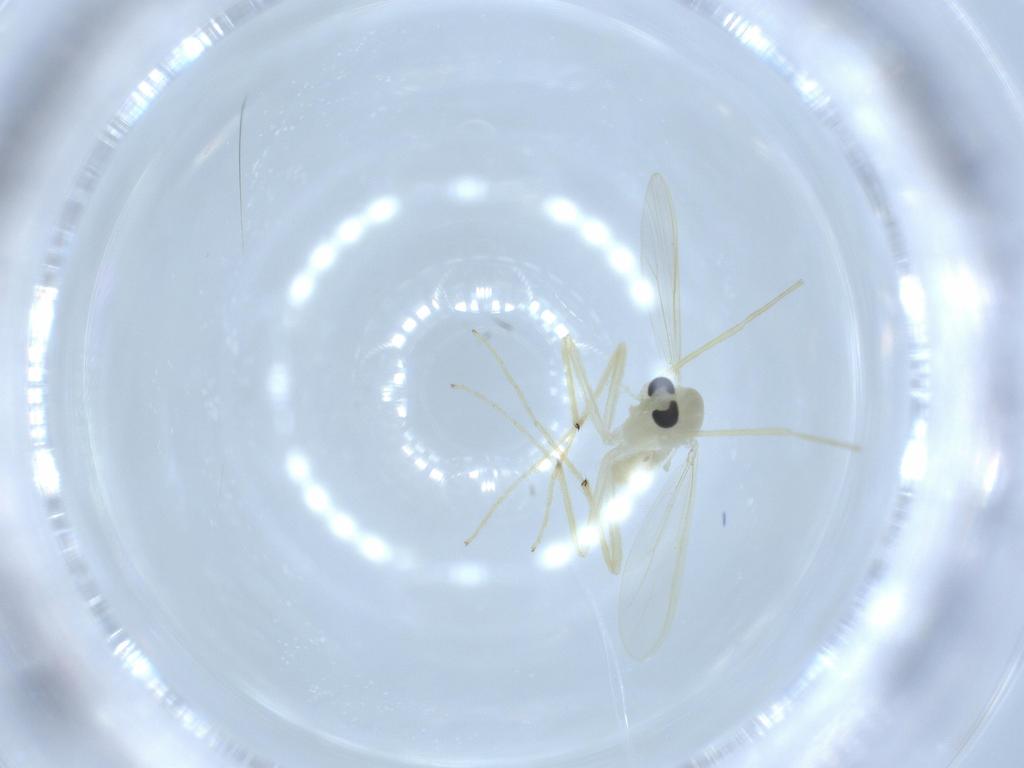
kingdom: Animalia
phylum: Arthropoda
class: Insecta
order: Diptera
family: Chironomidae
